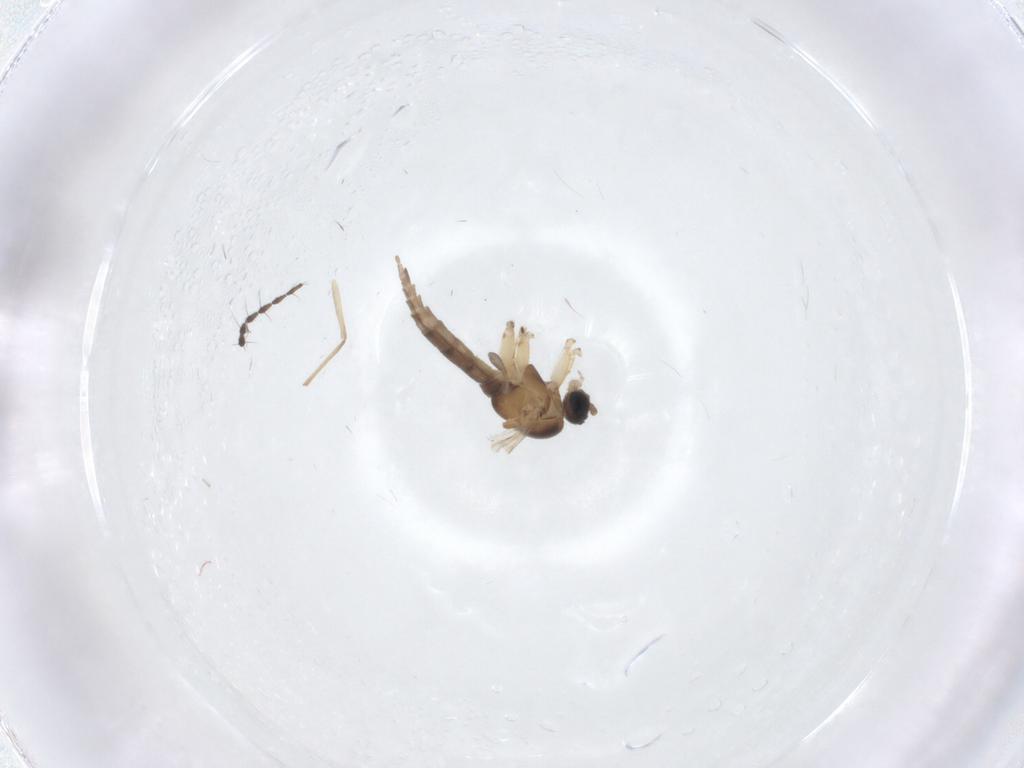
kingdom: Animalia
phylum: Arthropoda
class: Insecta
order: Diptera
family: Sciaridae
